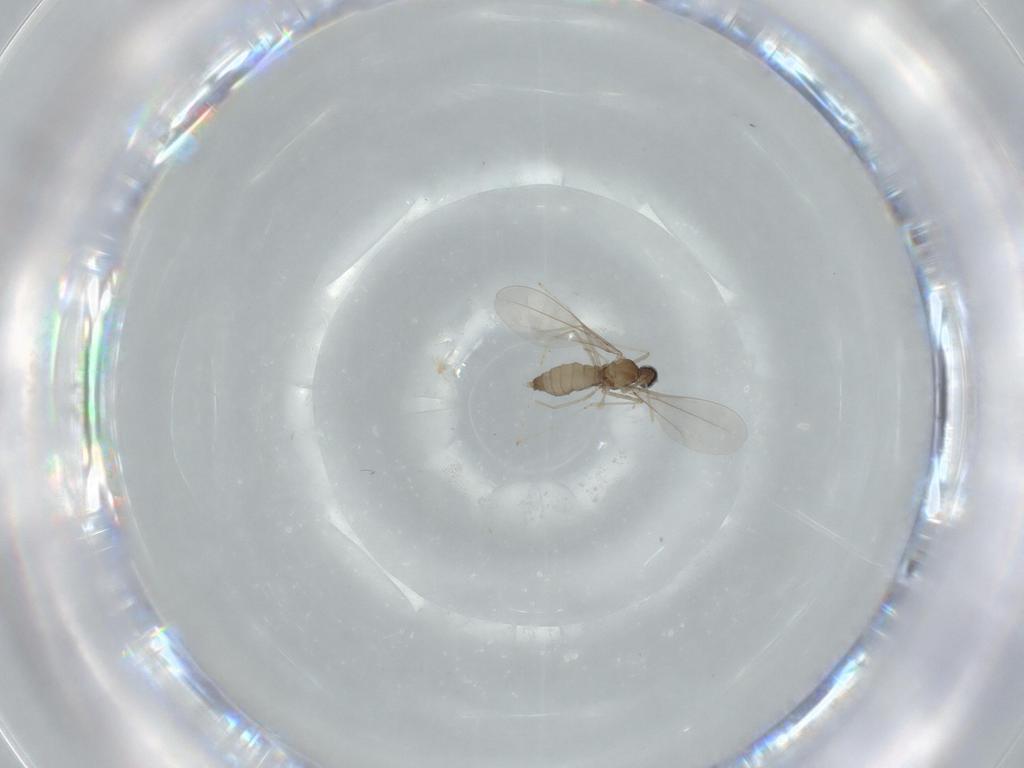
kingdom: Animalia
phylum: Arthropoda
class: Insecta
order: Diptera
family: Cecidomyiidae
